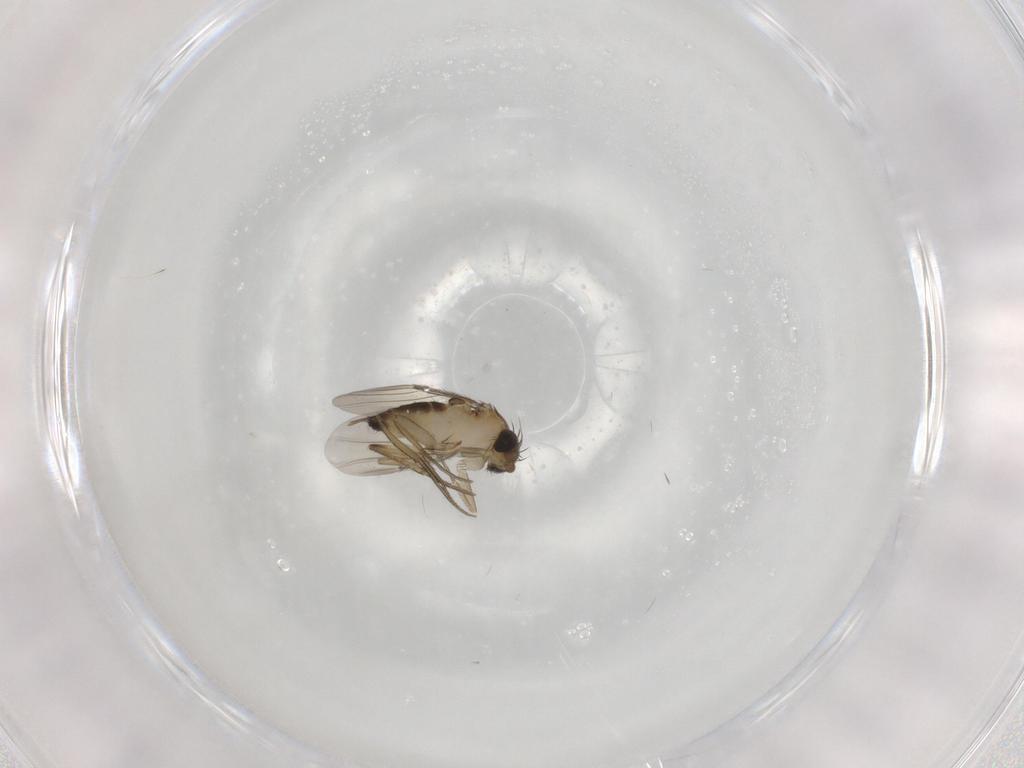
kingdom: Animalia
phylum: Arthropoda
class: Insecta
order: Diptera
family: Phoridae
